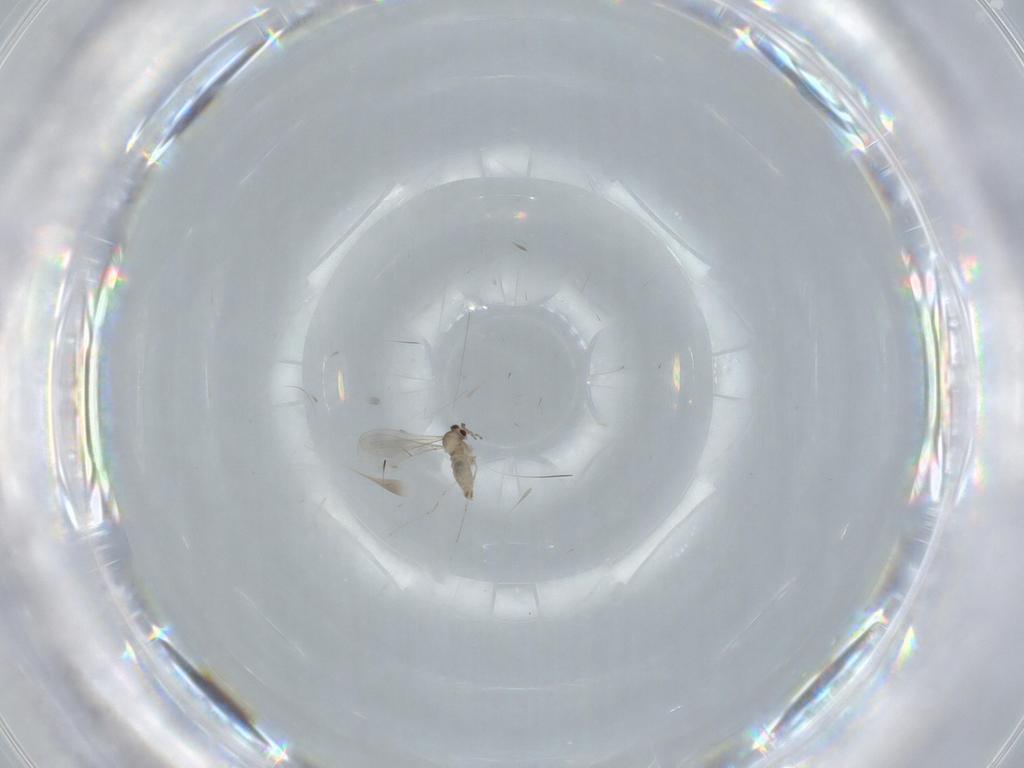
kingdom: Animalia
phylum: Arthropoda
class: Insecta
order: Diptera
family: Cecidomyiidae
